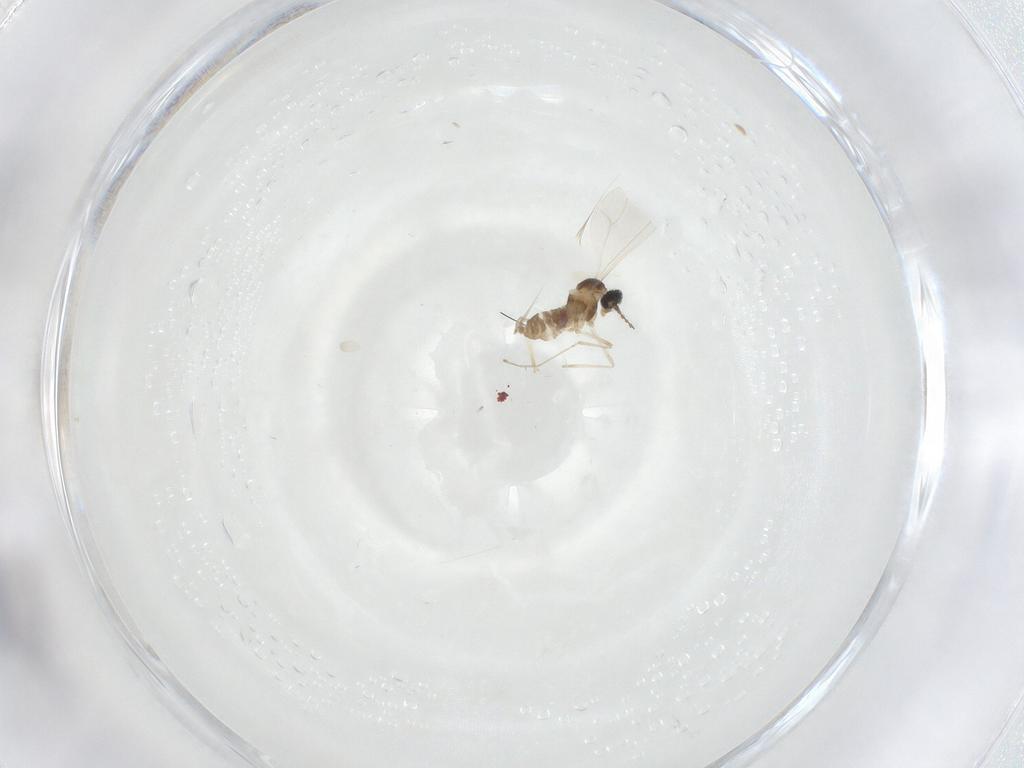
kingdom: Animalia
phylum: Arthropoda
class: Insecta
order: Diptera
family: Cecidomyiidae
